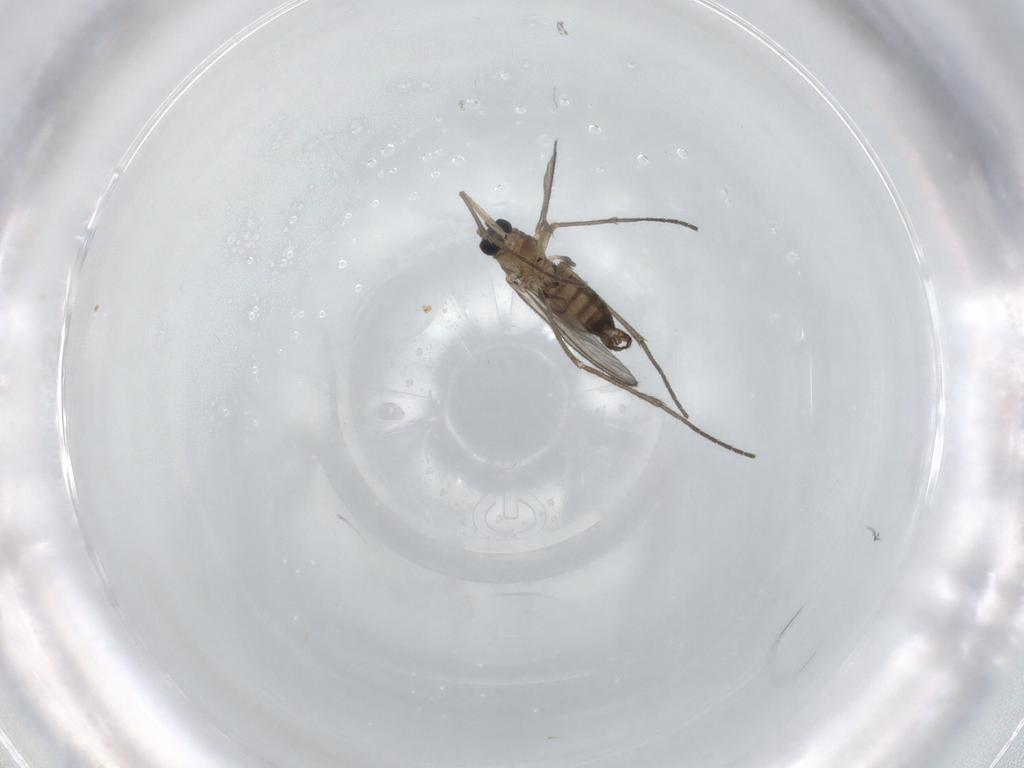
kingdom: Animalia
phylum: Arthropoda
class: Insecta
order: Diptera
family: Sciaridae
